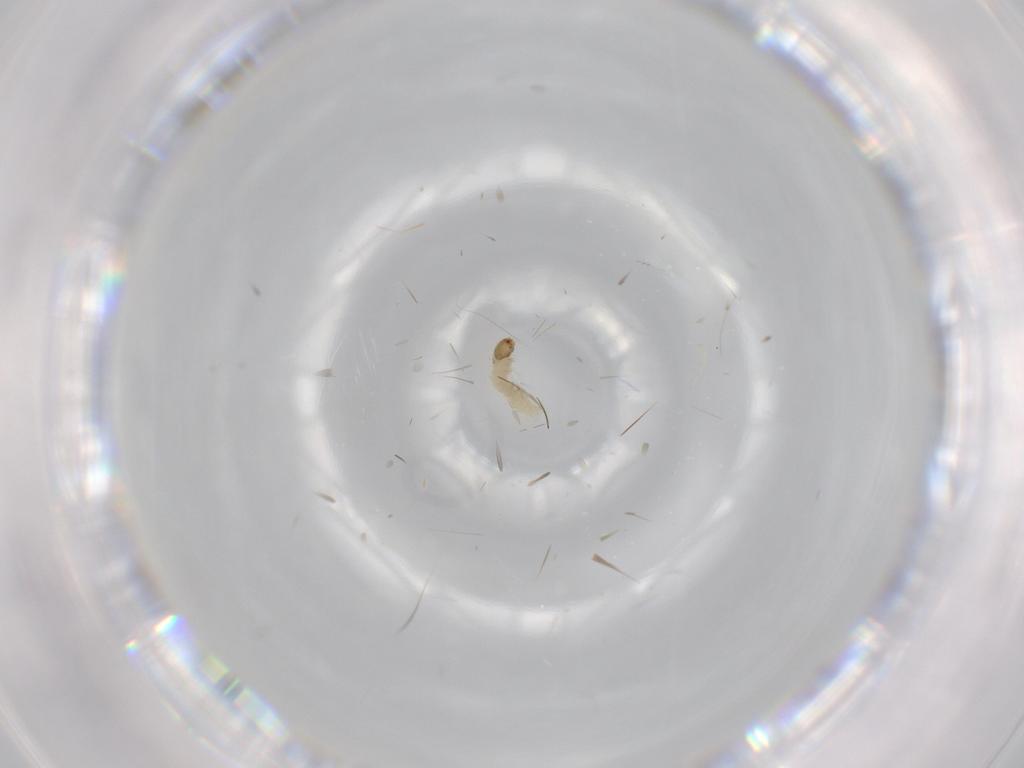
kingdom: Animalia
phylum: Arthropoda
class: Insecta
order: Lepidoptera
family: Tineidae
